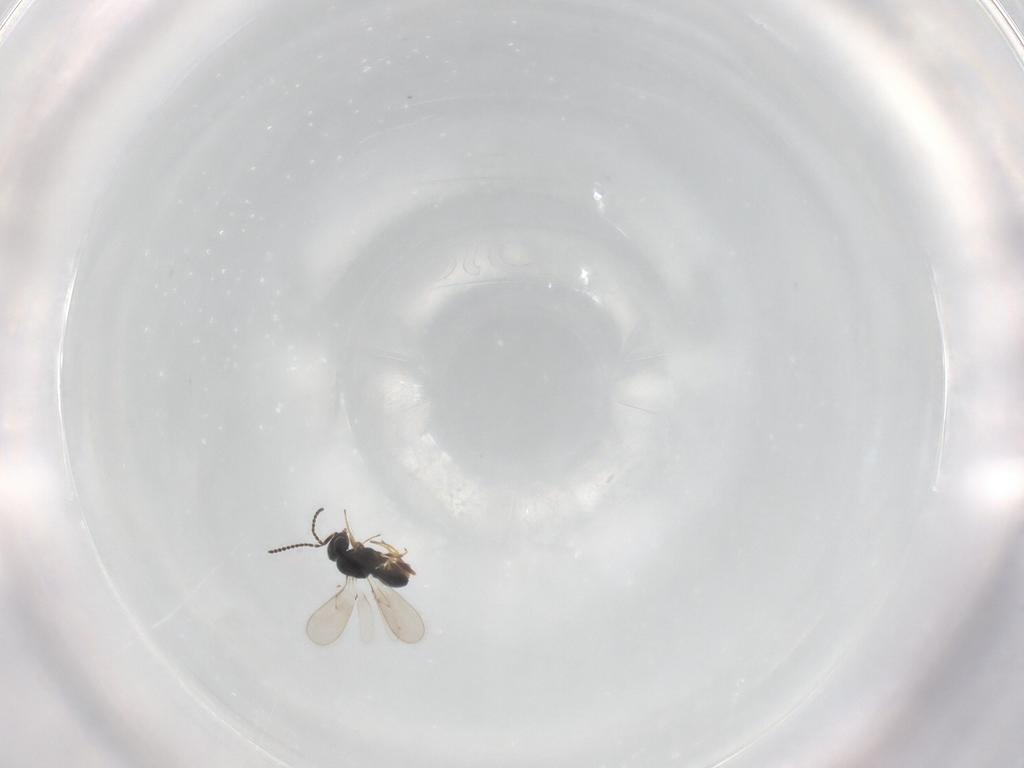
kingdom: Animalia
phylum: Arthropoda
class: Insecta
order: Hymenoptera
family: Scelionidae
